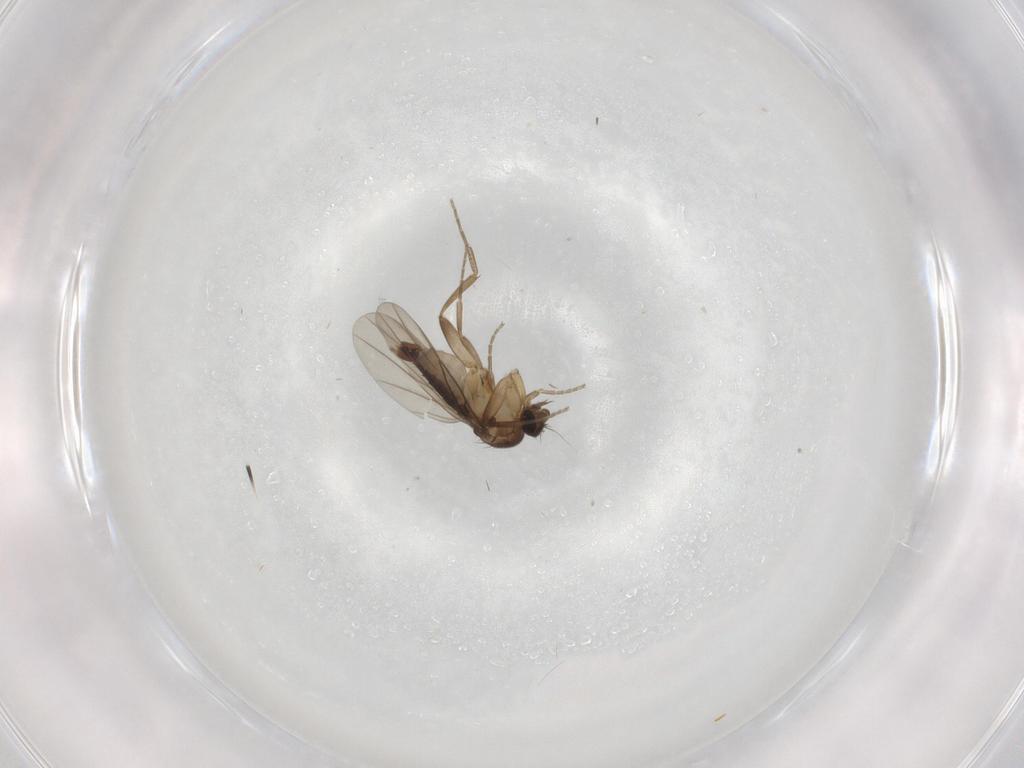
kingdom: Animalia
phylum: Arthropoda
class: Insecta
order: Diptera
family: Phoridae
